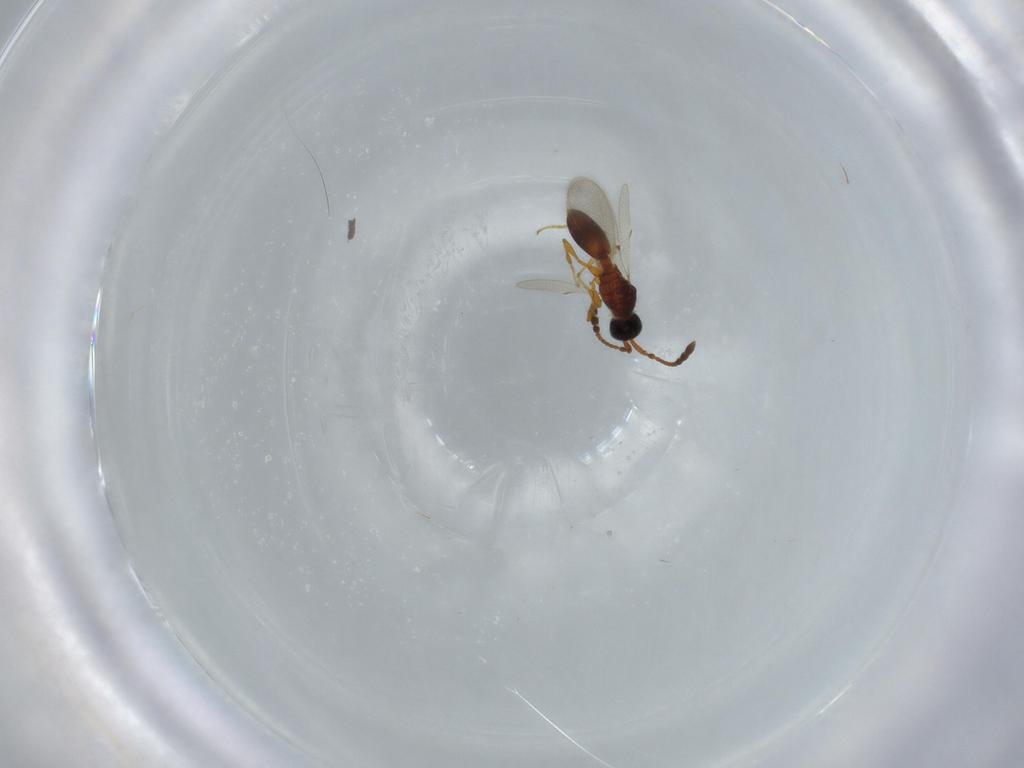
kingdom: Animalia
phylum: Arthropoda
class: Insecta
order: Hymenoptera
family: Diapriidae
